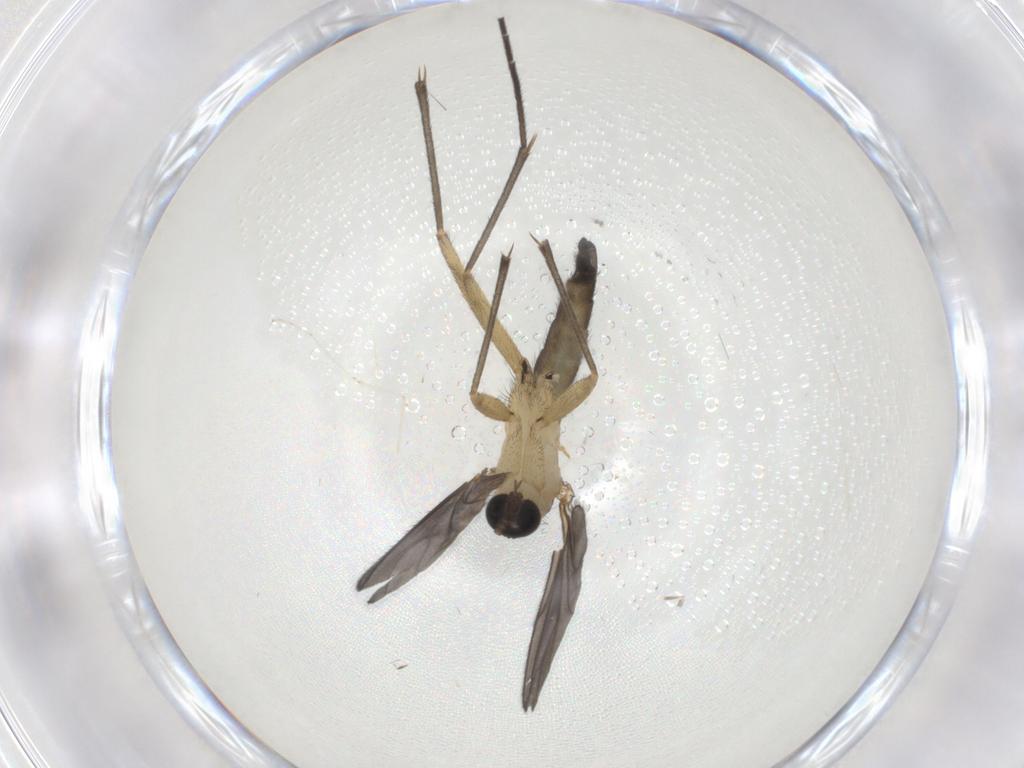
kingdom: Animalia
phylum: Arthropoda
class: Insecta
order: Diptera
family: Sciaridae
